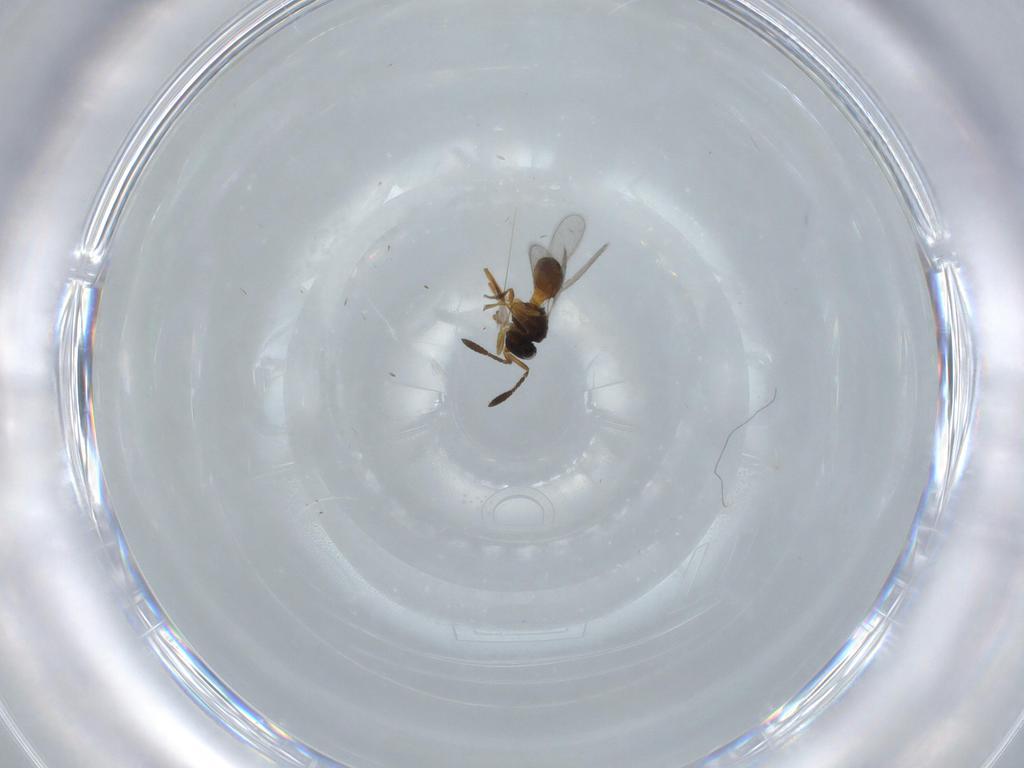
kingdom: Animalia
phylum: Arthropoda
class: Insecta
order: Hymenoptera
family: Scelionidae
